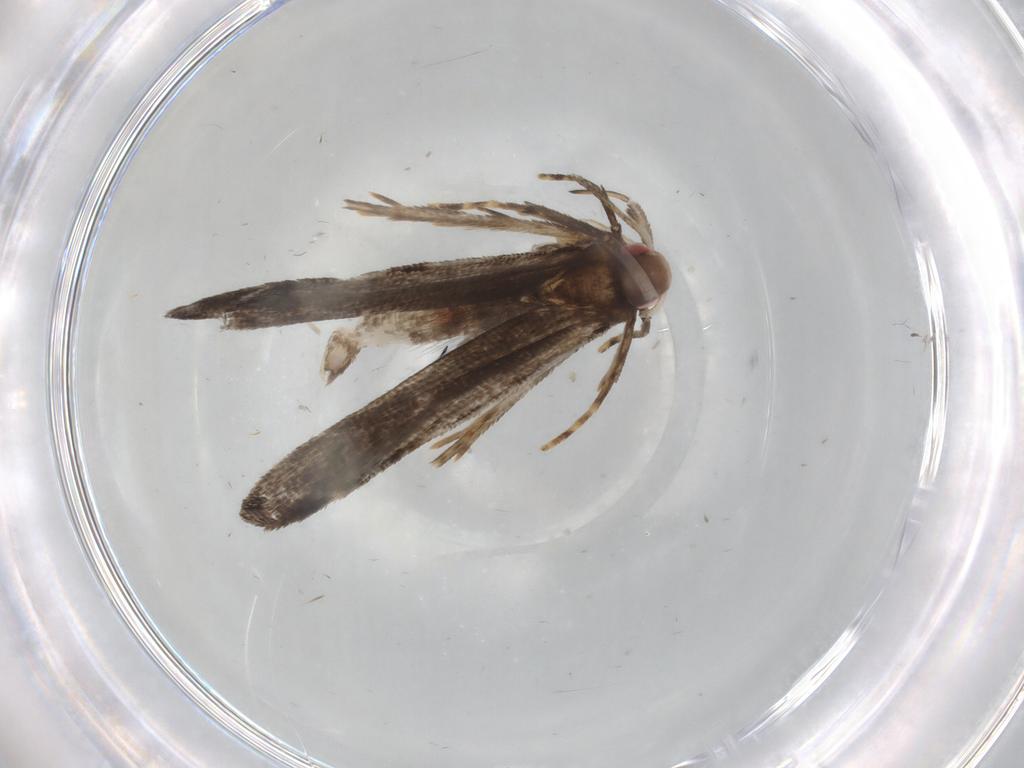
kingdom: Animalia
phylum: Arthropoda
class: Insecta
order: Lepidoptera
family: Gelechiidae
